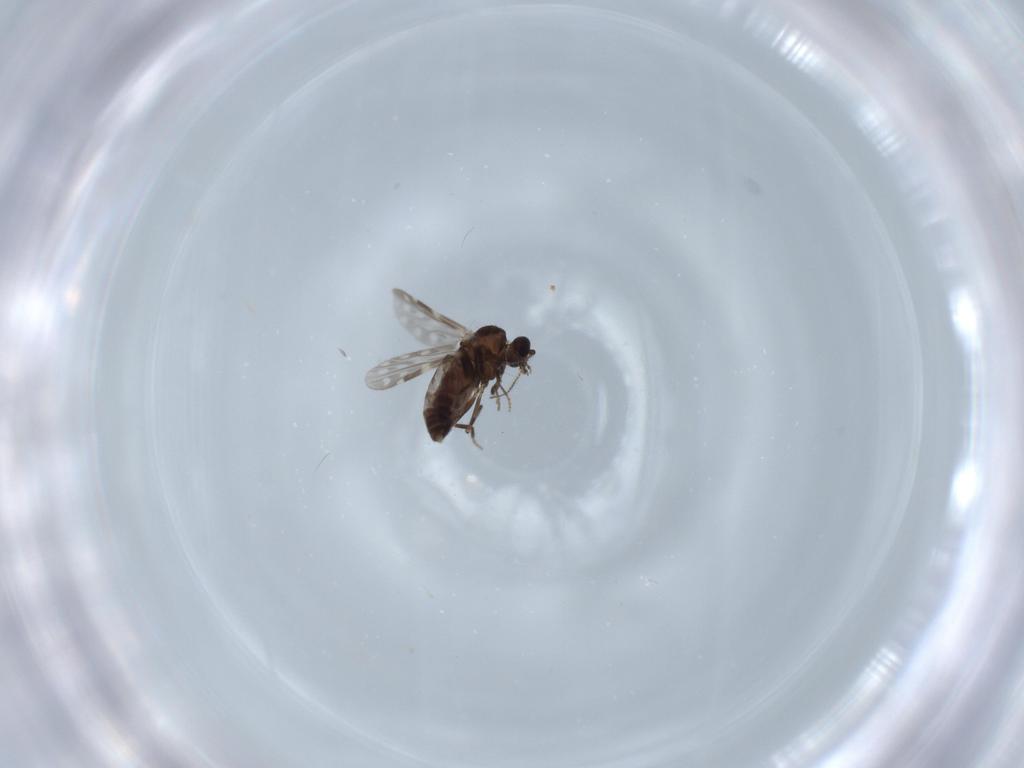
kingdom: Animalia
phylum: Arthropoda
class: Insecta
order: Diptera
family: Ceratopogonidae
